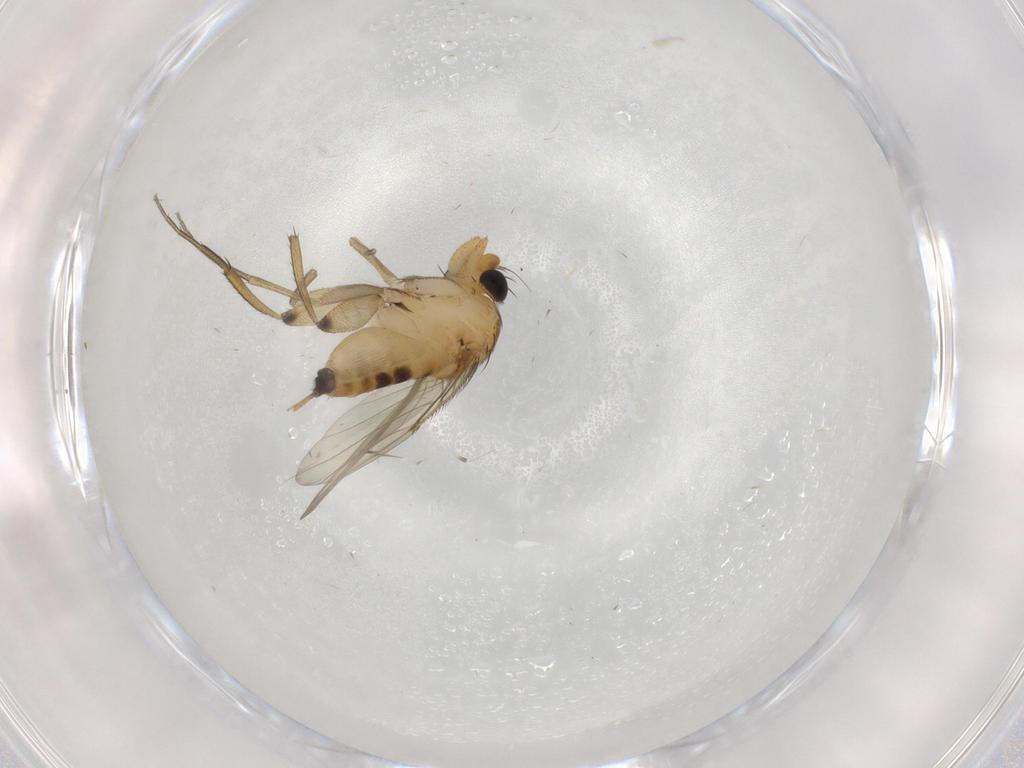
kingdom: Animalia
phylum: Arthropoda
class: Insecta
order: Diptera
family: Phoridae
